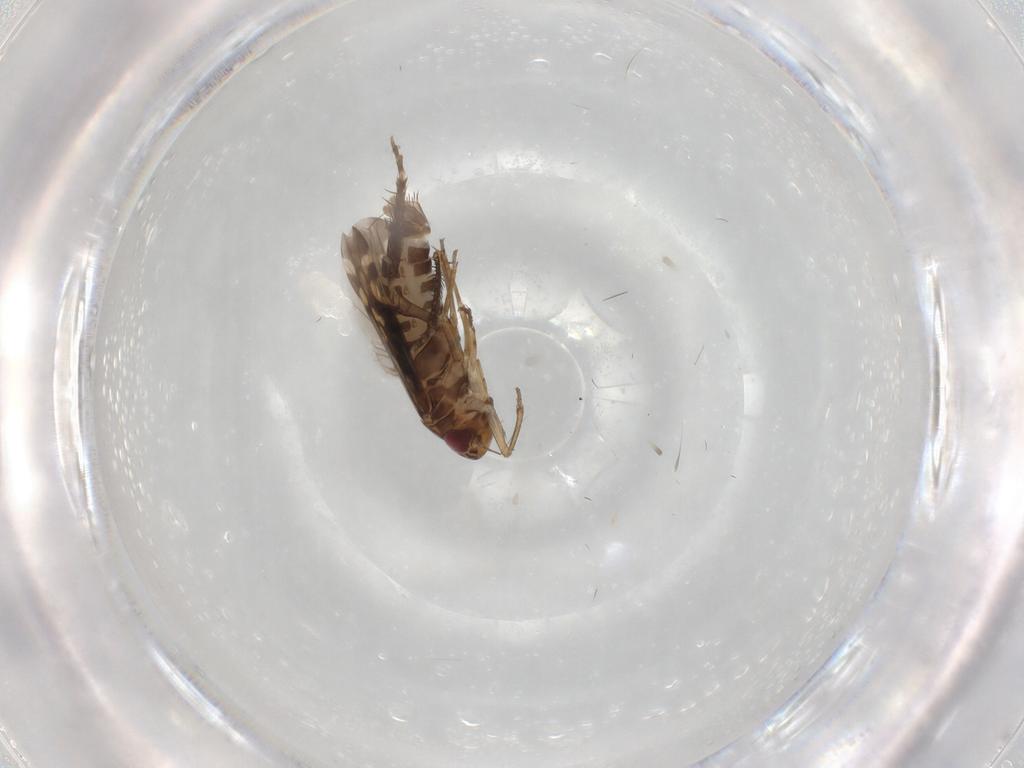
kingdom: Animalia
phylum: Arthropoda
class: Insecta
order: Hemiptera
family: Cicadellidae
